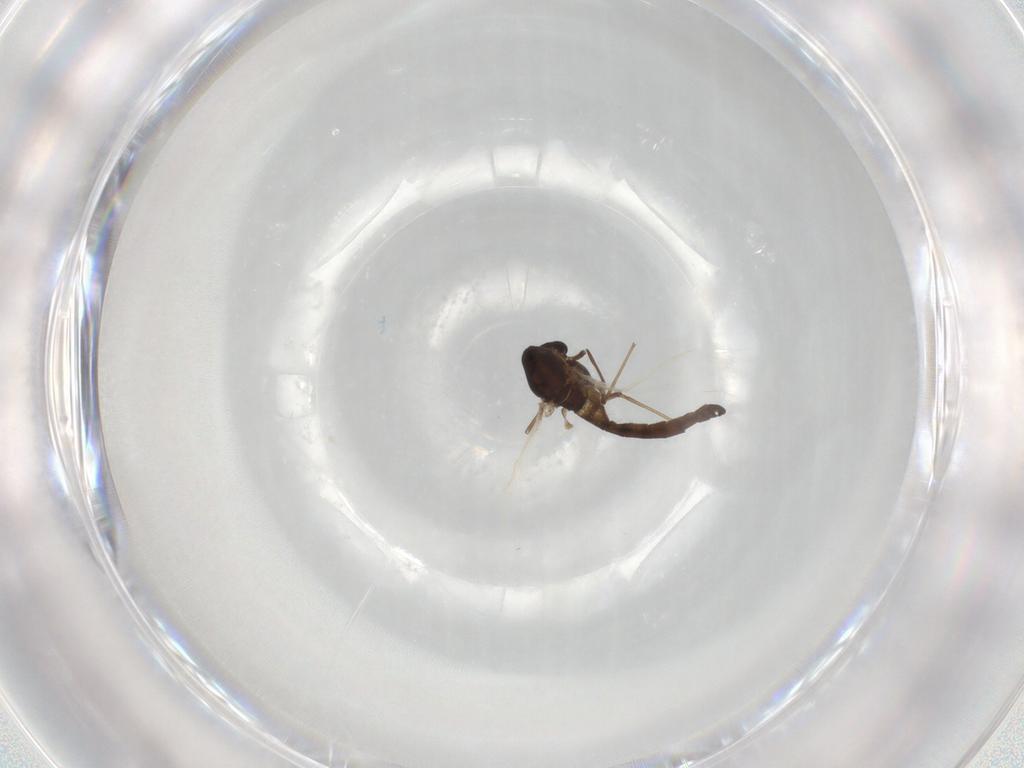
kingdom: Animalia
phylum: Arthropoda
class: Insecta
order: Diptera
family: Chironomidae
